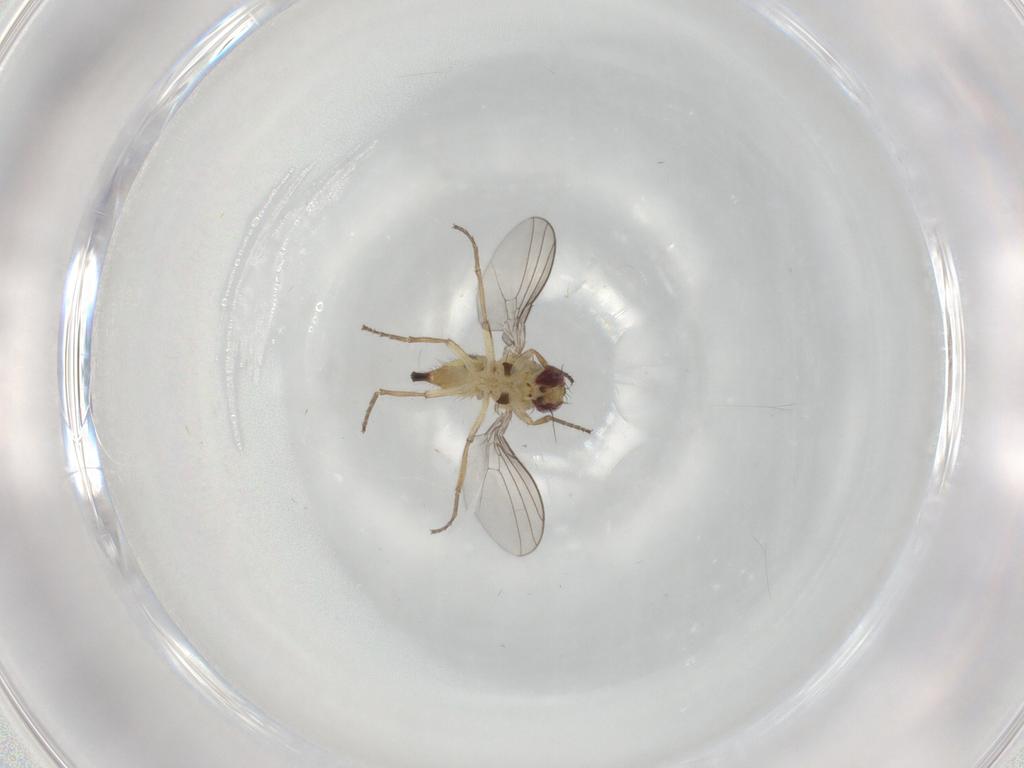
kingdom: Animalia
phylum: Arthropoda
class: Insecta
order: Diptera
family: Agromyzidae
